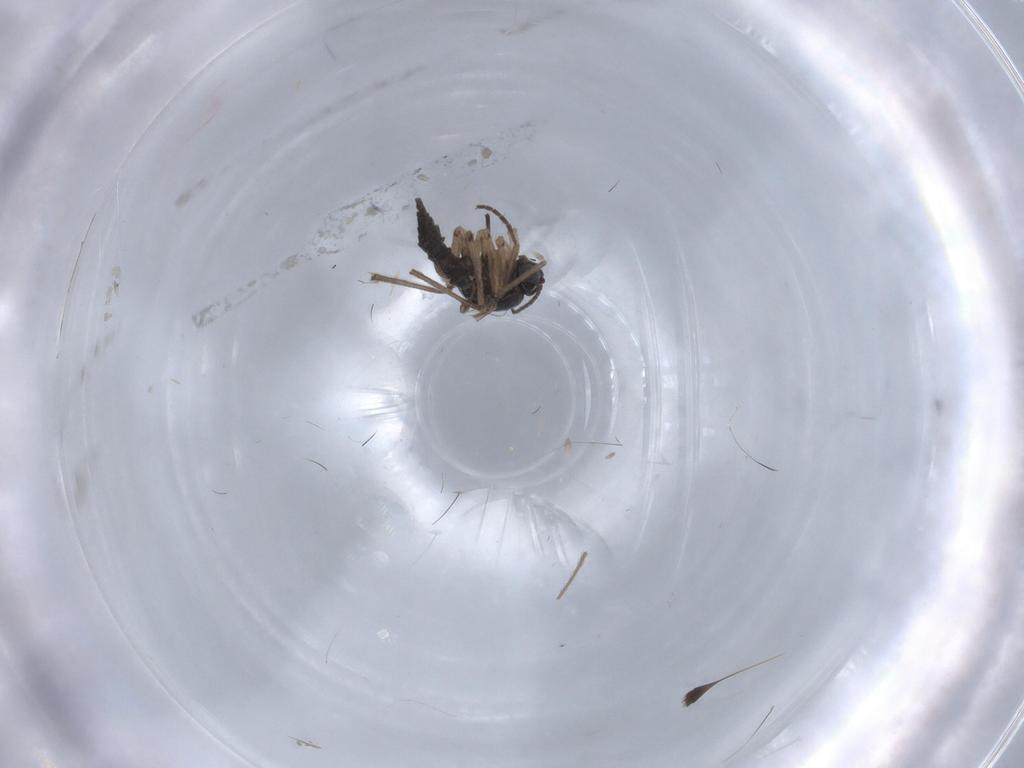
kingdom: Animalia
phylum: Arthropoda
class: Insecta
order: Diptera
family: Sciaridae
